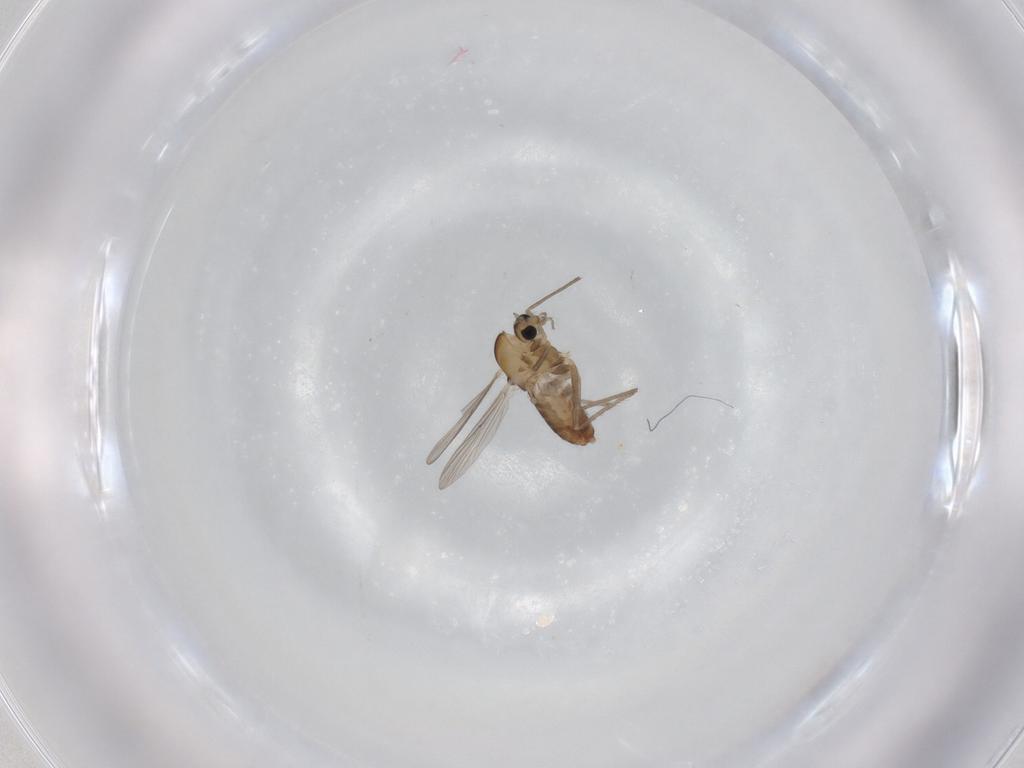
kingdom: Animalia
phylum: Arthropoda
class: Insecta
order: Diptera
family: Chironomidae
